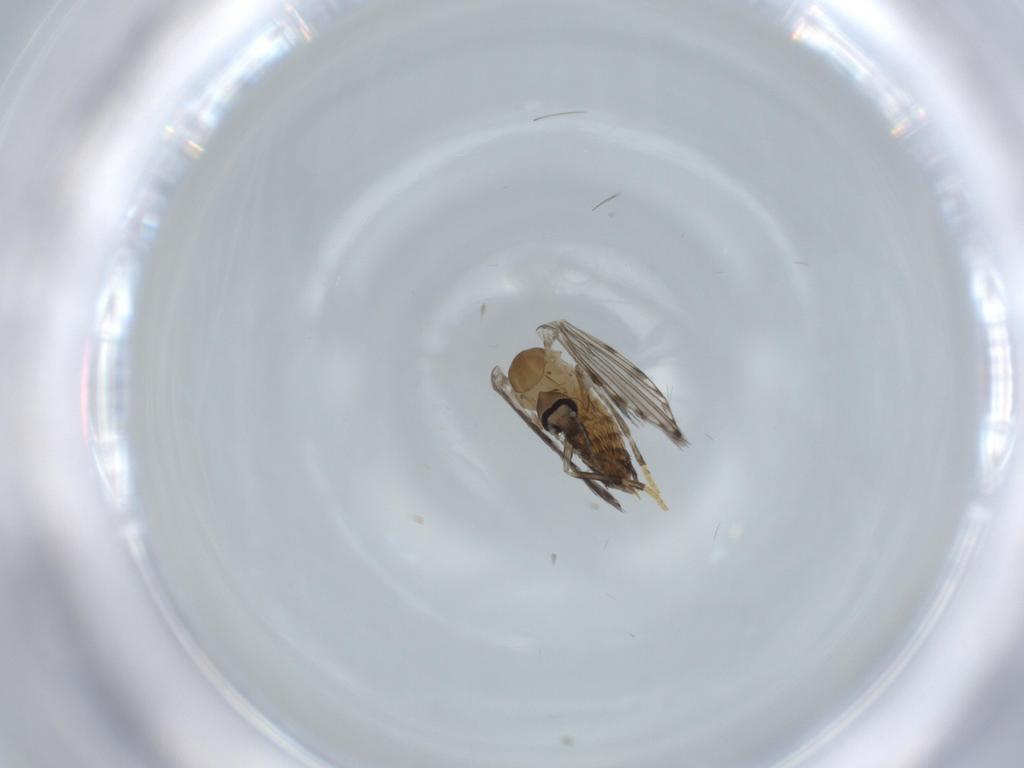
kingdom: Animalia
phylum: Arthropoda
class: Insecta
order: Diptera
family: Psychodidae
